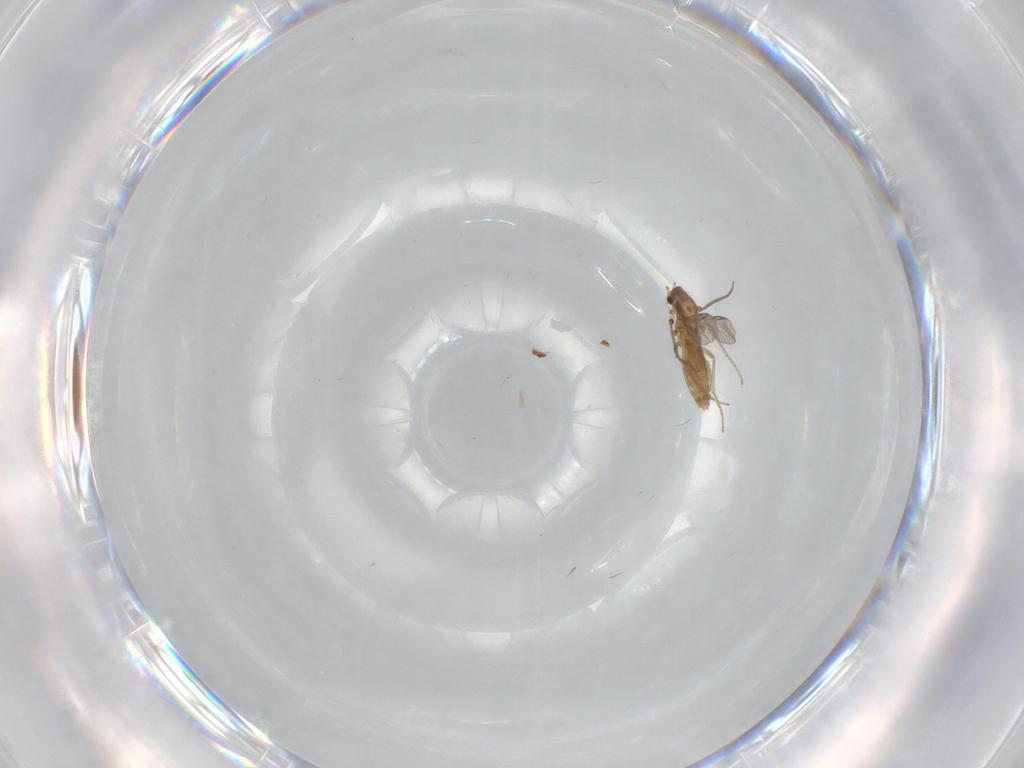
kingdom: Animalia
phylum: Arthropoda
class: Insecta
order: Diptera
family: Chironomidae
